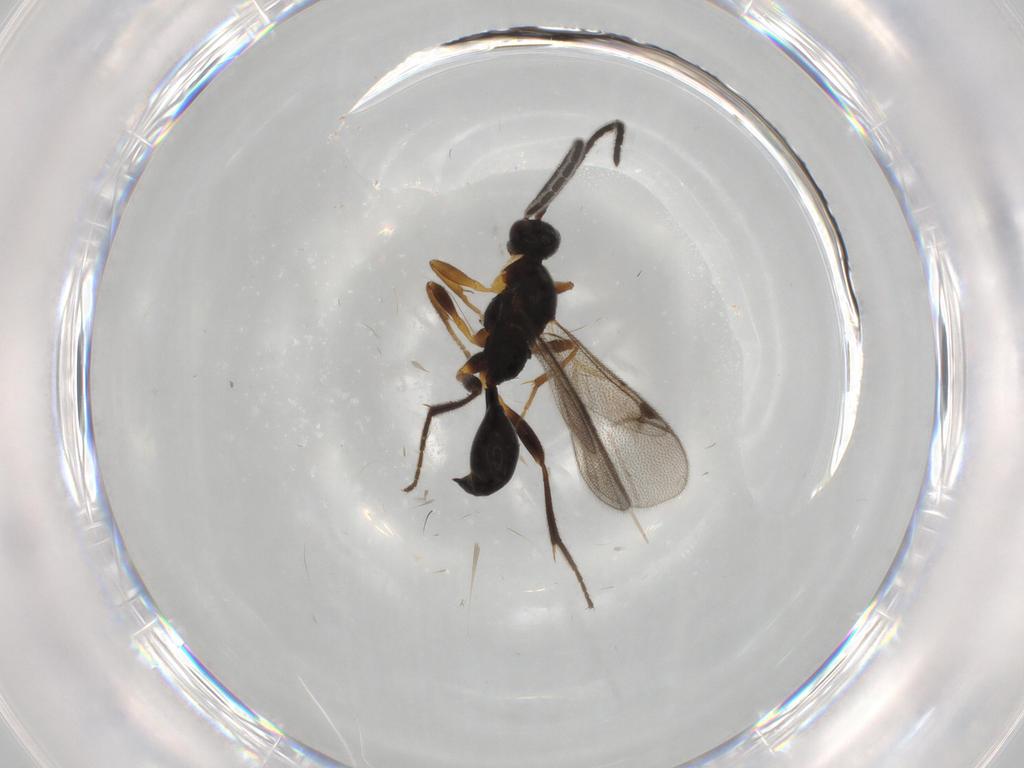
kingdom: Animalia
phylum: Arthropoda
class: Insecta
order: Hymenoptera
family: Proctotrupidae
